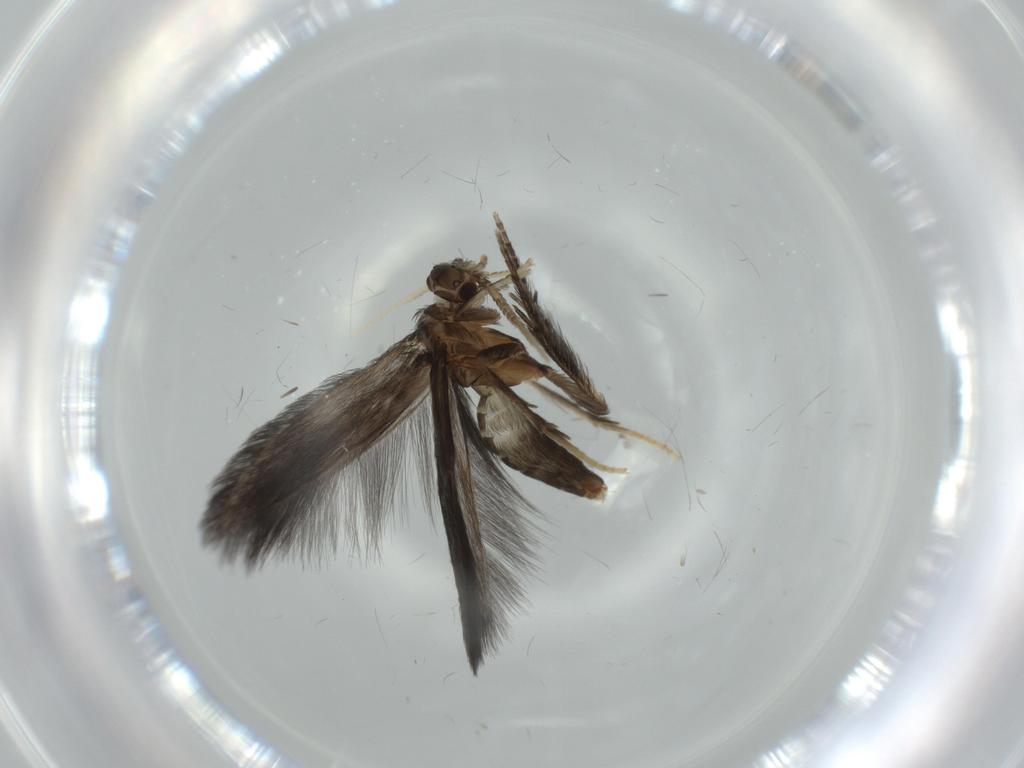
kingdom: Animalia
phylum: Arthropoda
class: Insecta
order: Trichoptera
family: Hydroptilidae
